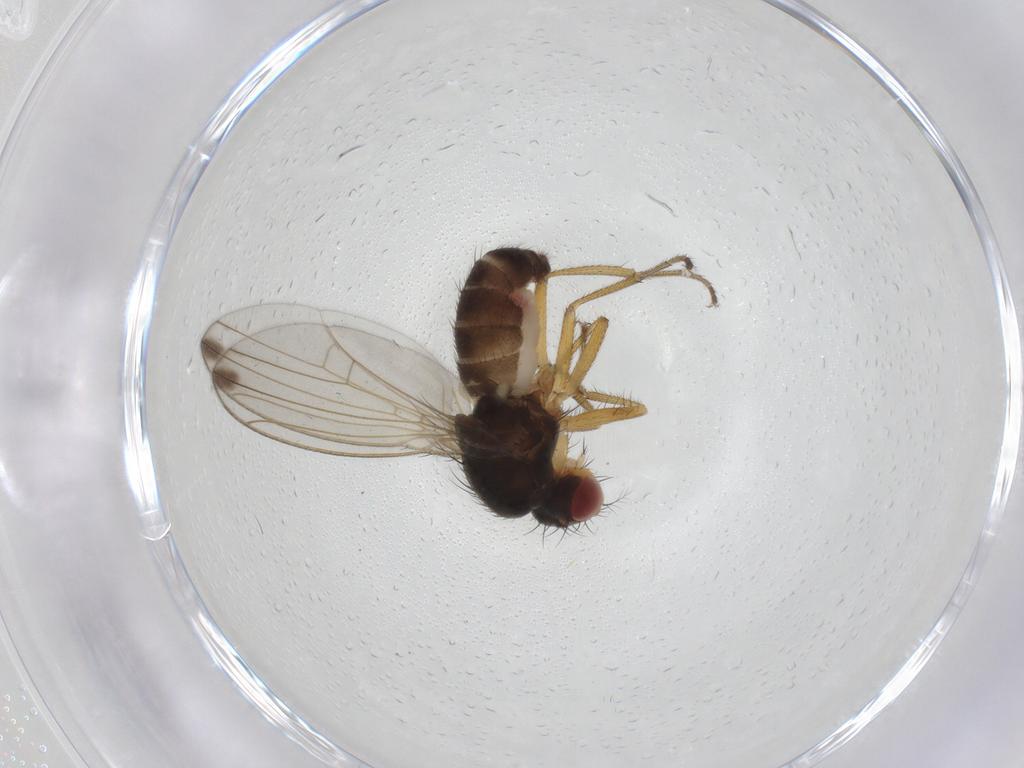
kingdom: Animalia
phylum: Arthropoda
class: Insecta
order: Diptera
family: Drosophilidae
